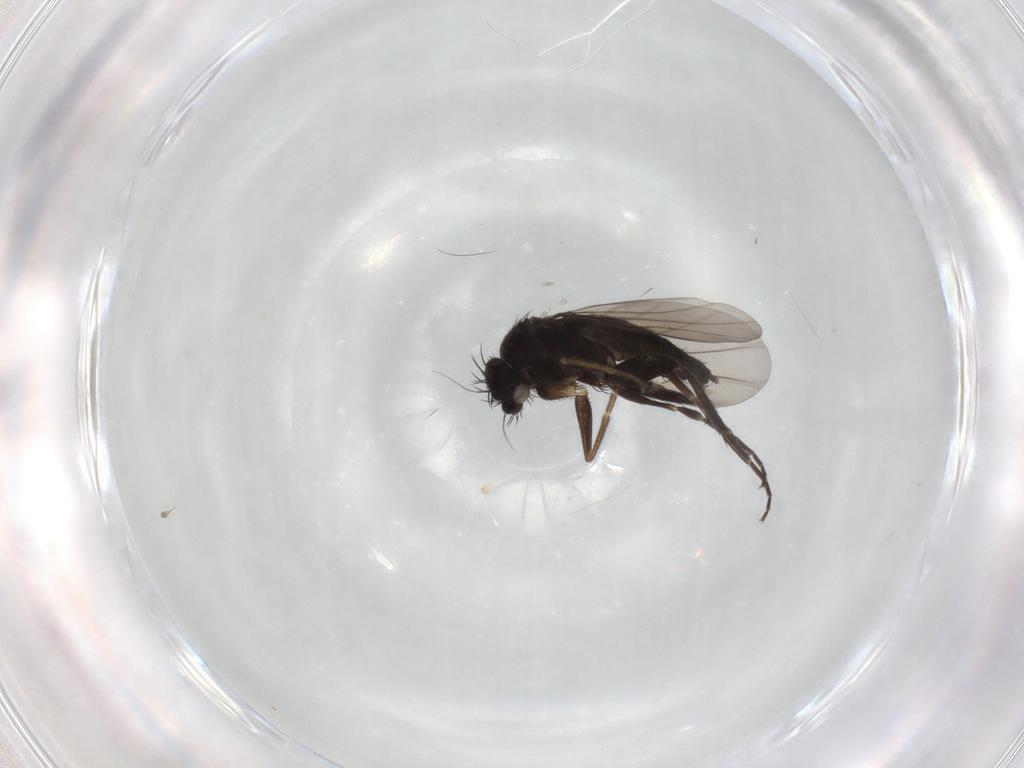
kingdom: Animalia
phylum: Arthropoda
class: Insecta
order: Diptera
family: Phoridae
